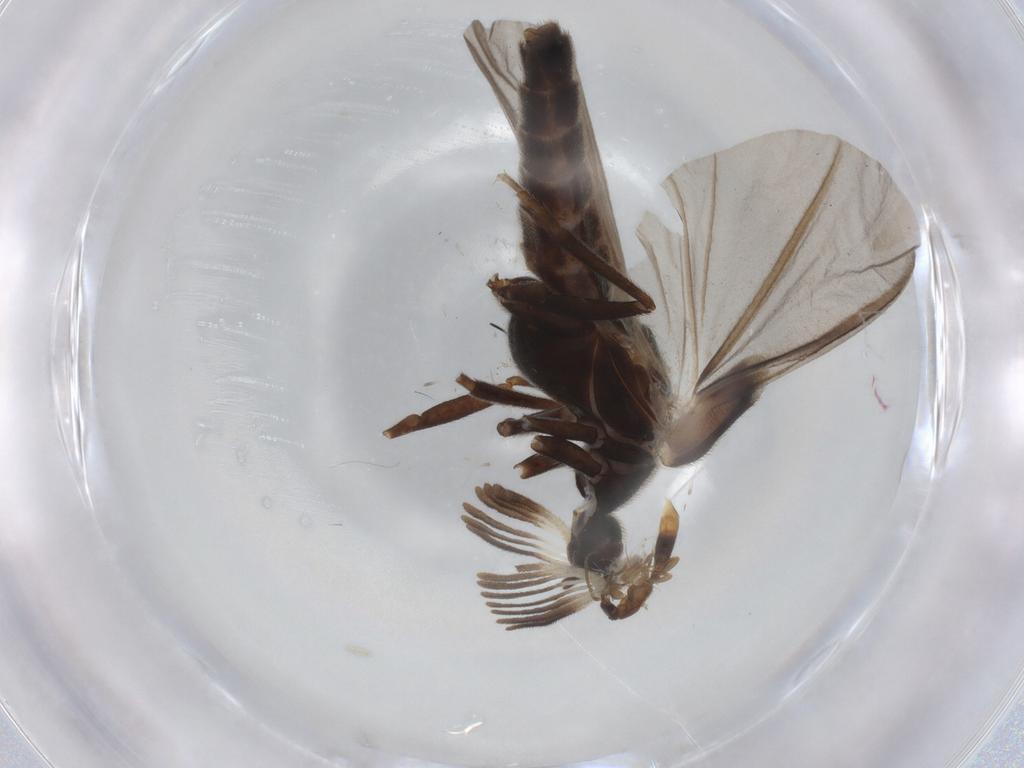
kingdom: Animalia
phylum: Arthropoda
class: Insecta
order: Coleoptera
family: Ripiphoridae
